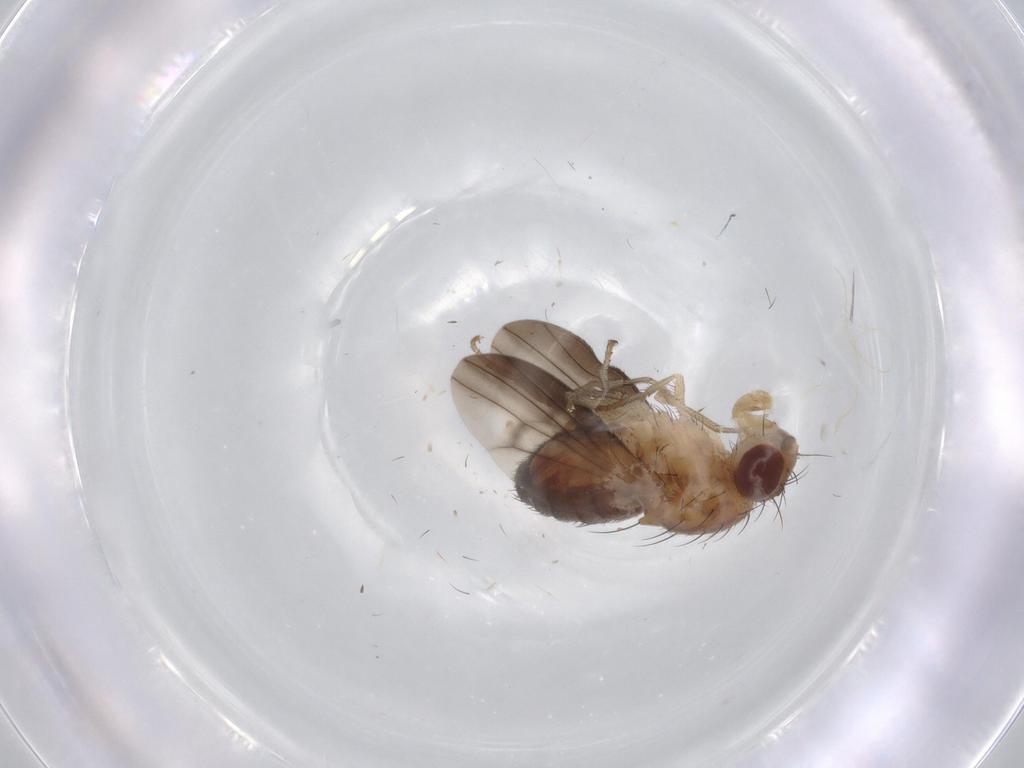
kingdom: Animalia
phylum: Arthropoda
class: Insecta
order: Diptera
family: Heleomyzidae
